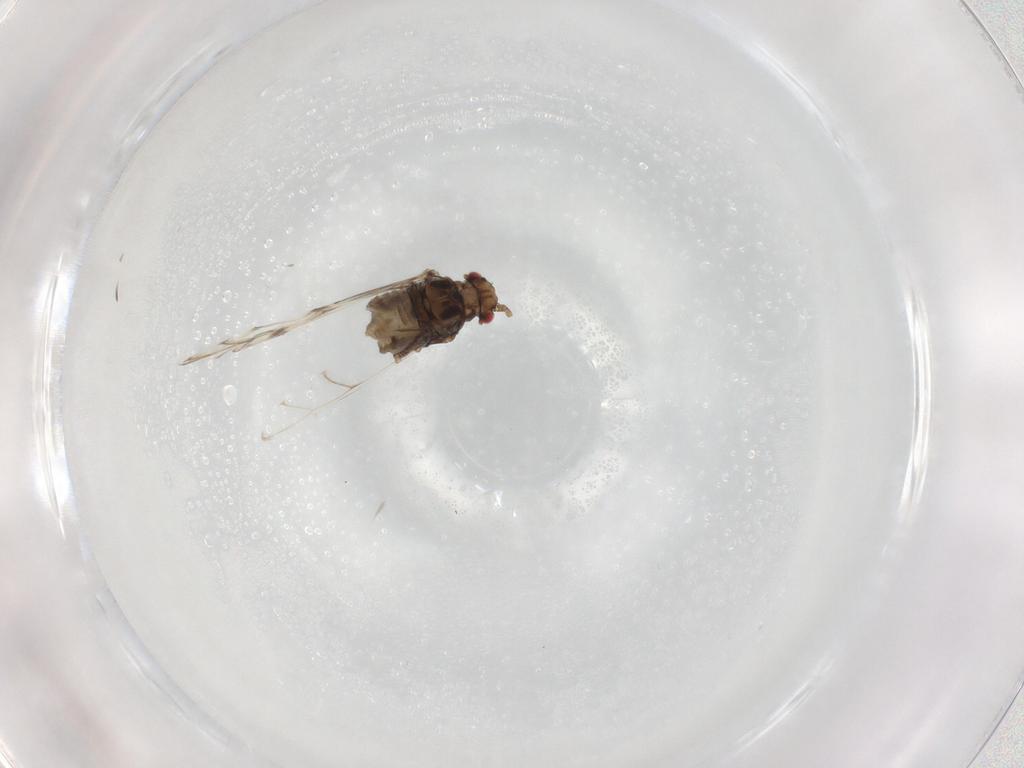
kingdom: Animalia
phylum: Arthropoda
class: Insecta
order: Hemiptera
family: Aphididae
